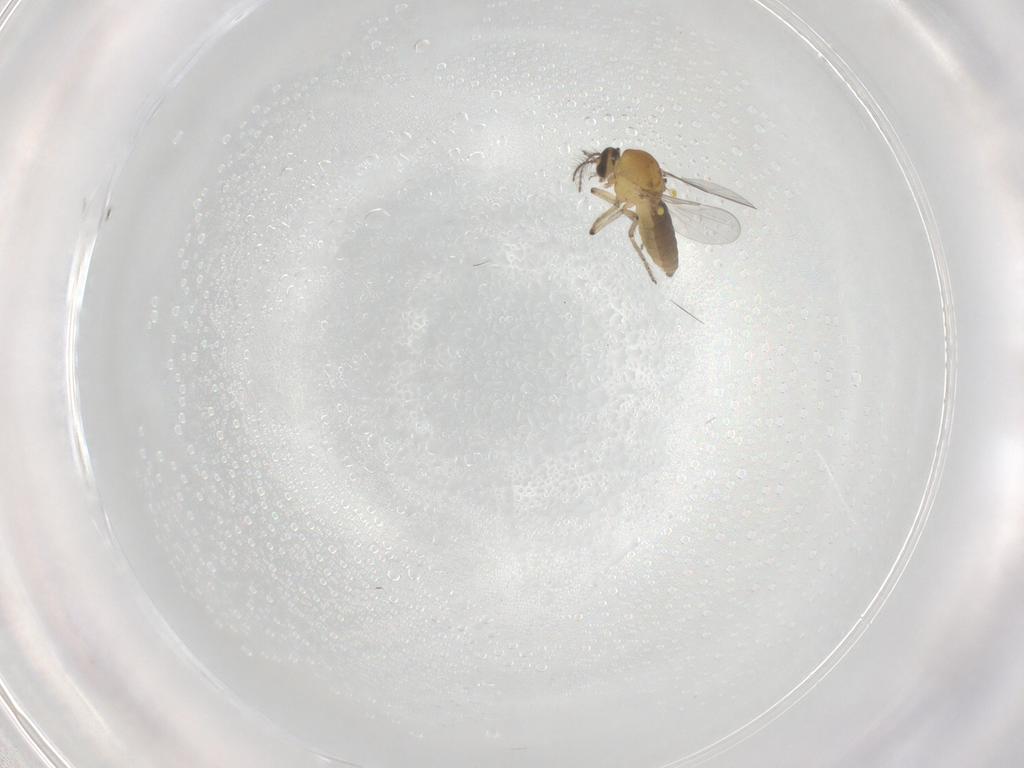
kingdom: Animalia
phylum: Arthropoda
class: Insecta
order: Diptera
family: Ceratopogonidae
